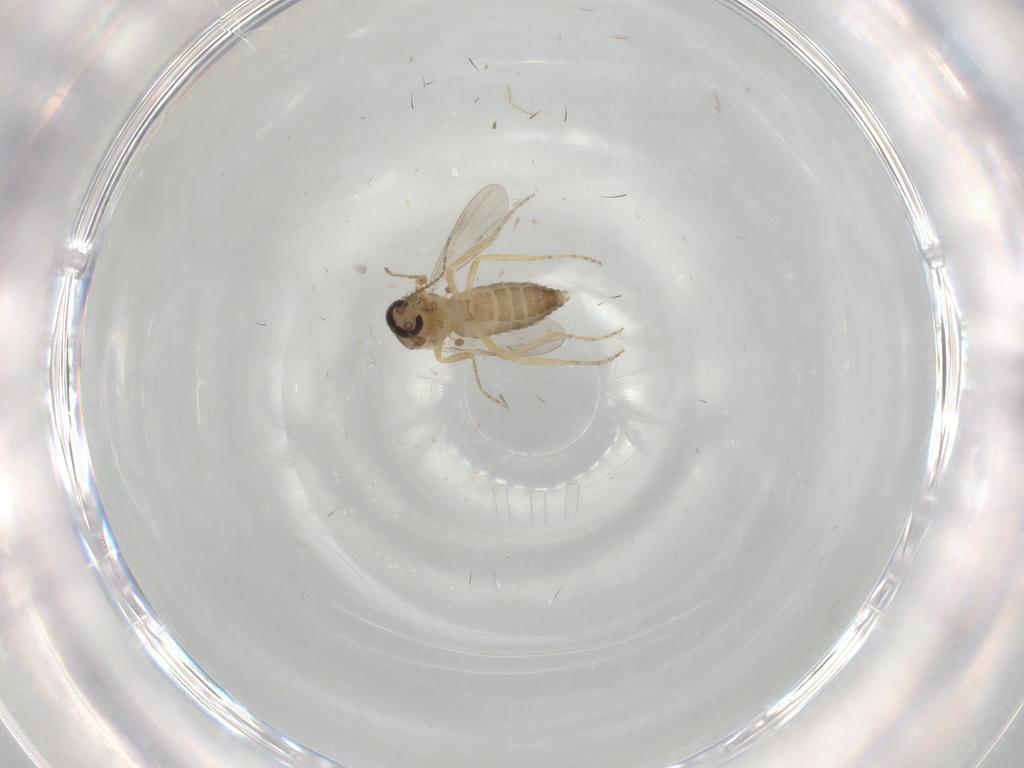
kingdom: Animalia
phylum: Arthropoda
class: Insecta
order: Diptera
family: Ceratopogonidae
